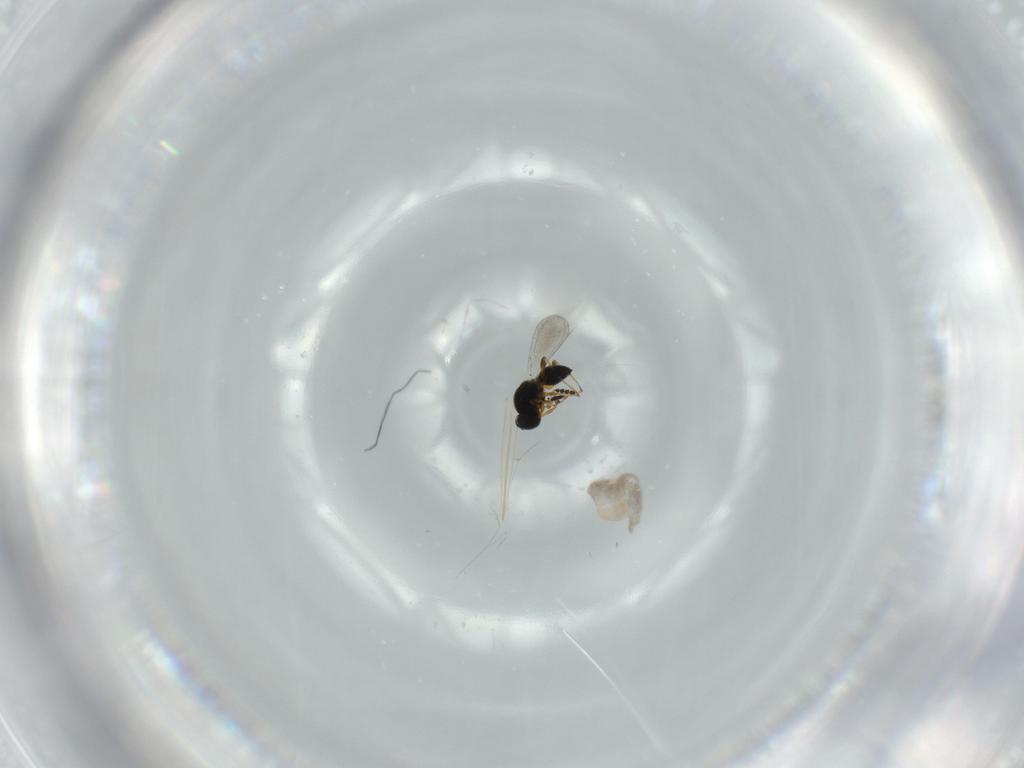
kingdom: Animalia
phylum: Arthropoda
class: Insecta
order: Hymenoptera
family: Platygastridae
